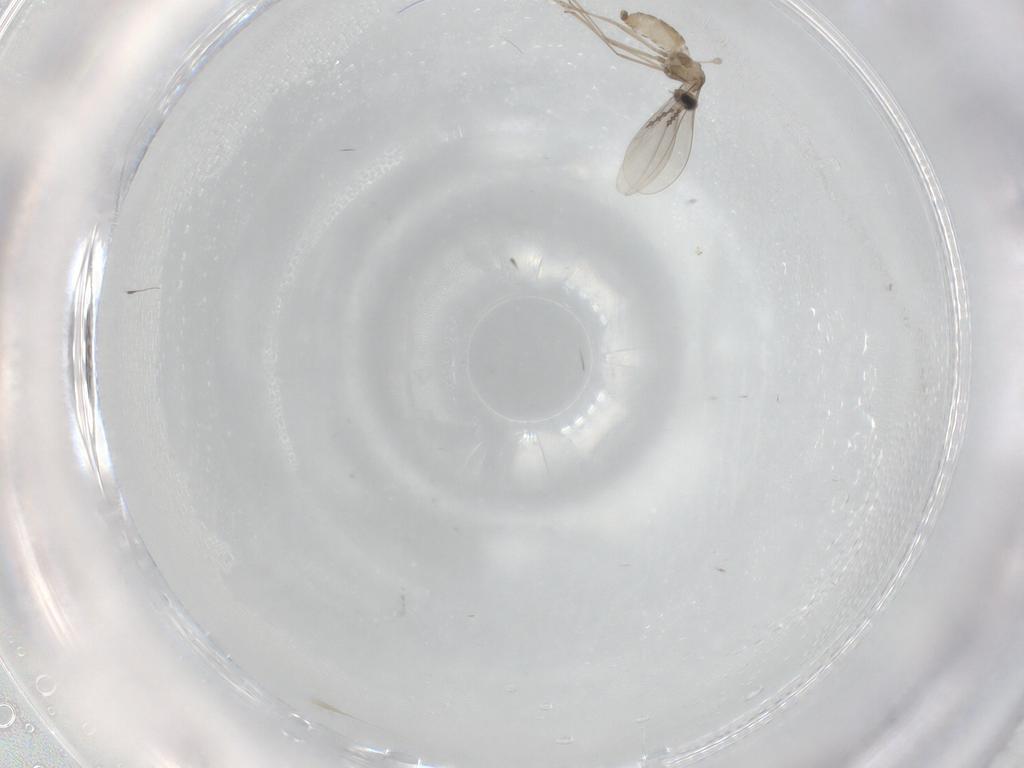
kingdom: Animalia
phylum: Arthropoda
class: Insecta
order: Diptera
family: Cecidomyiidae
